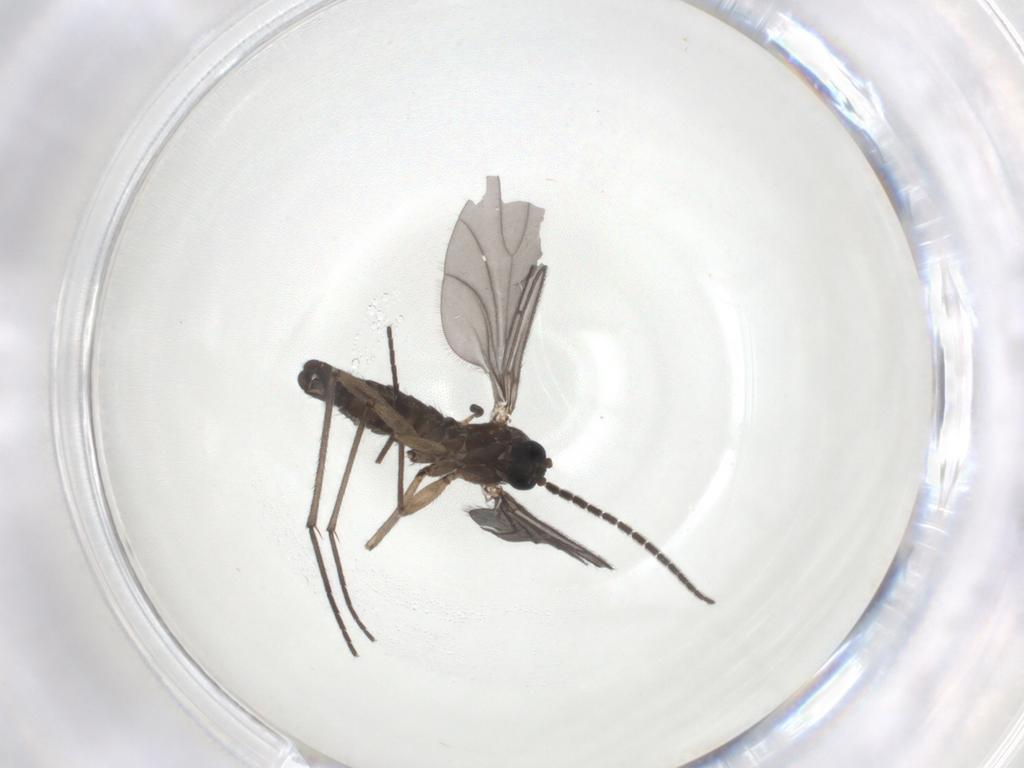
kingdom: Animalia
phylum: Arthropoda
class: Insecta
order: Diptera
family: Sciaridae
